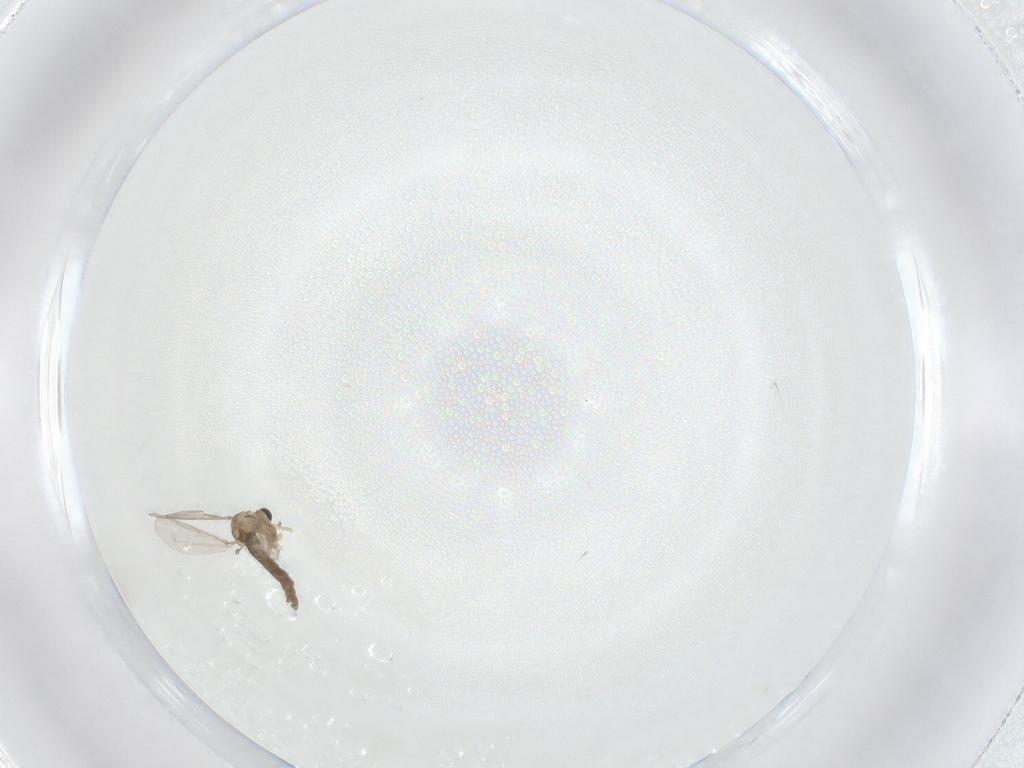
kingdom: Animalia
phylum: Arthropoda
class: Insecta
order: Diptera
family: Chironomidae
